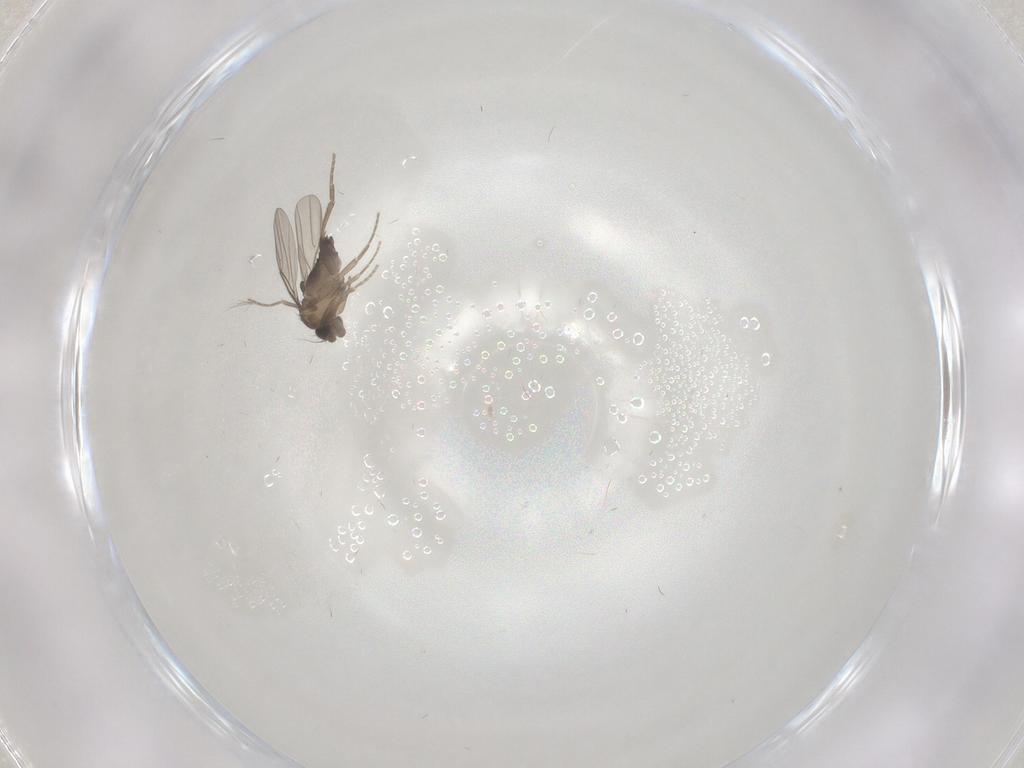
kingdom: Animalia
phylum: Arthropoda
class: Insecta
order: Diptera
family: Phoridae
